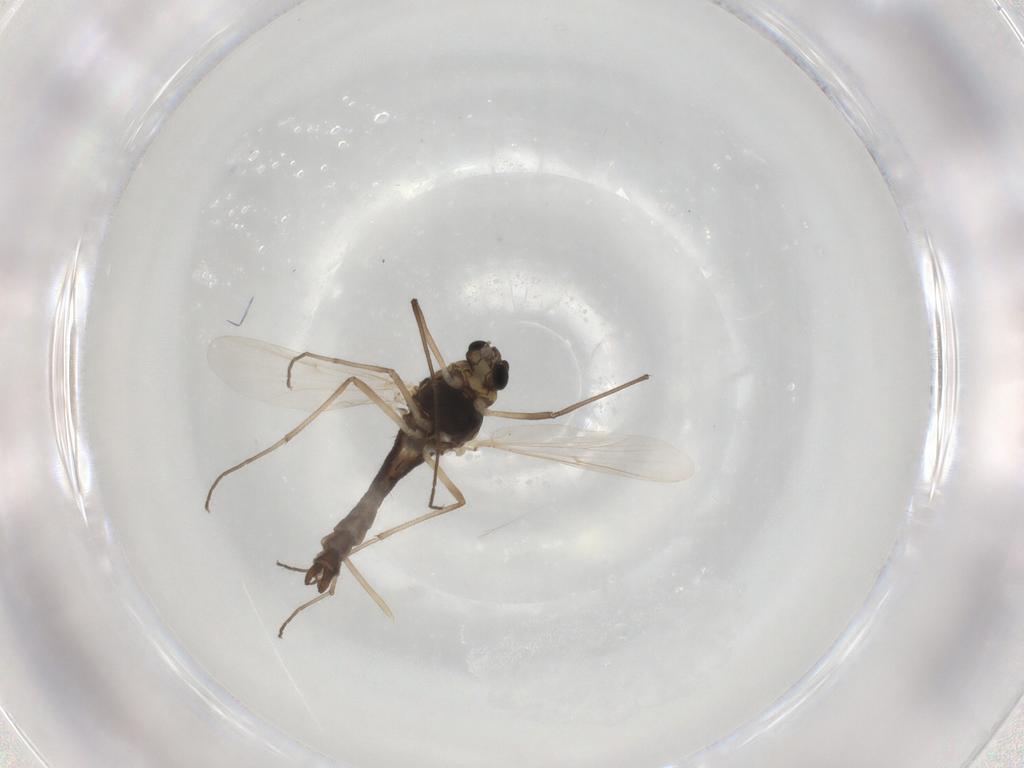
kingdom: Animalia
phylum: Arthropoda
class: Insecta
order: Diptera
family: Chironomidae
